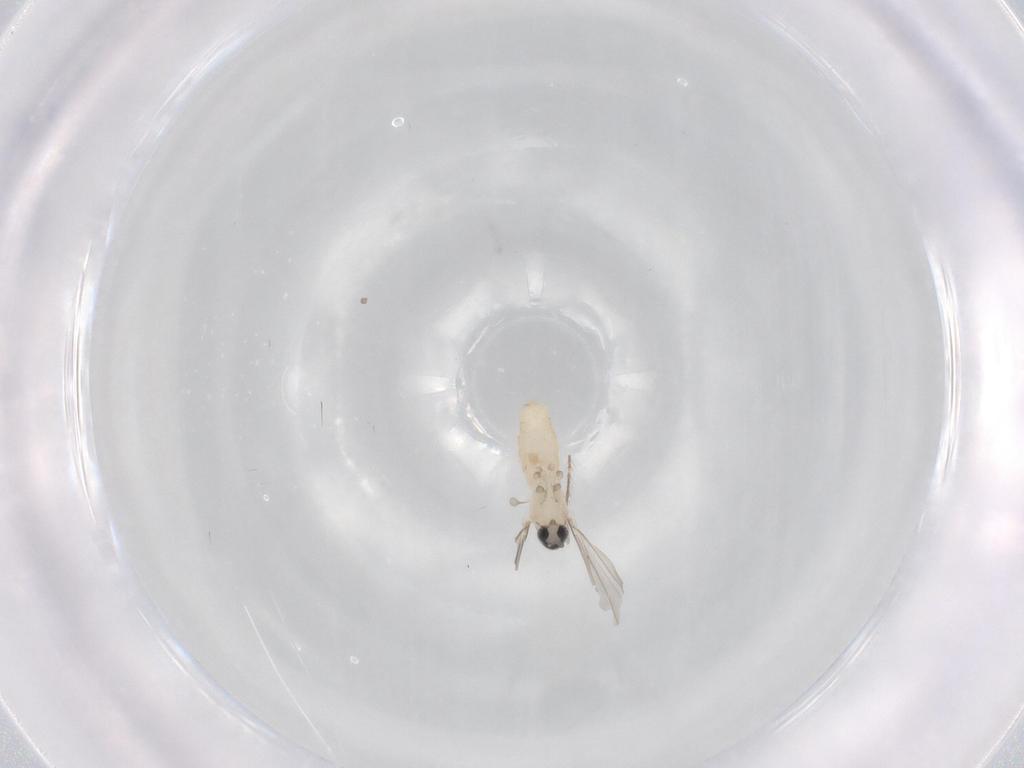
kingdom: Animalia
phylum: Arthropoda
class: Insecta
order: Diptera
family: Cecidomyiidae
